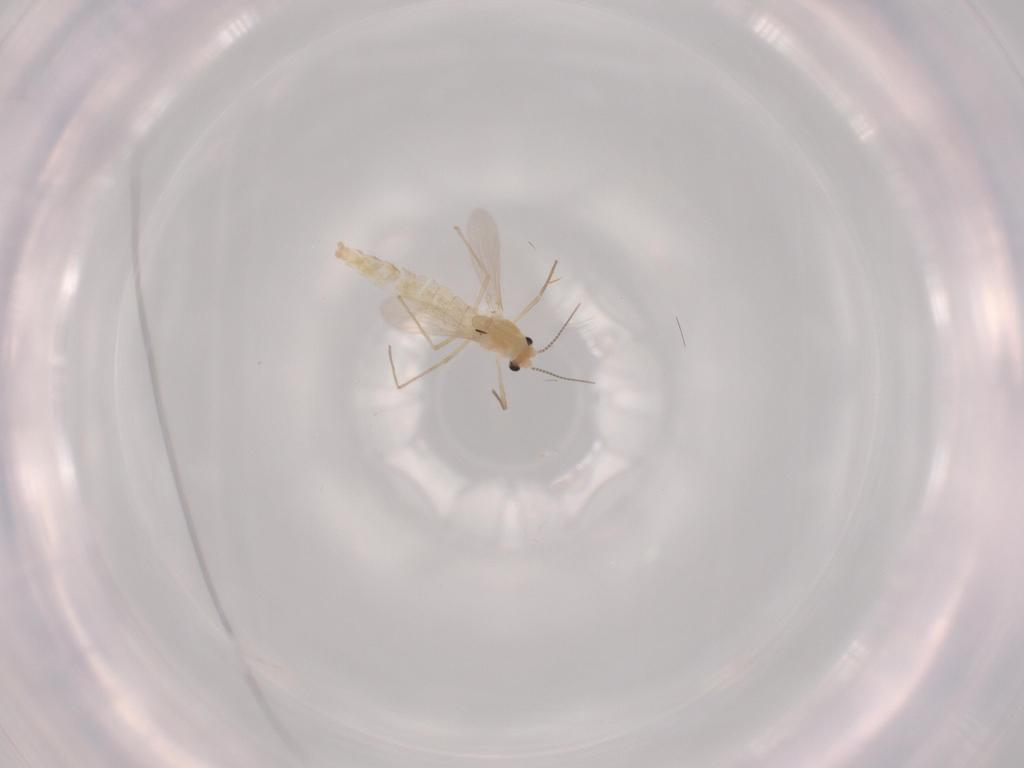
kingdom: Animalia
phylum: Arthropoda
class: Insecta
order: Diptera
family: Chironomidae
